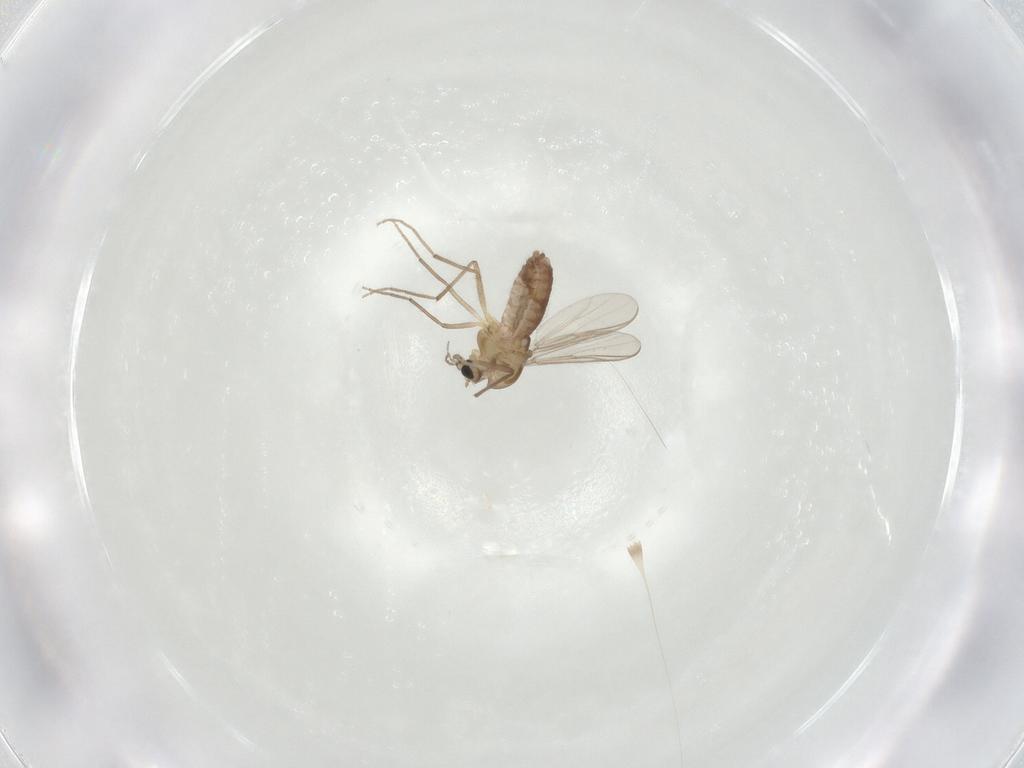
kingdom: Animalia
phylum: Arthropoda
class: Insecta
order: Diptera
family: Chironomidae
